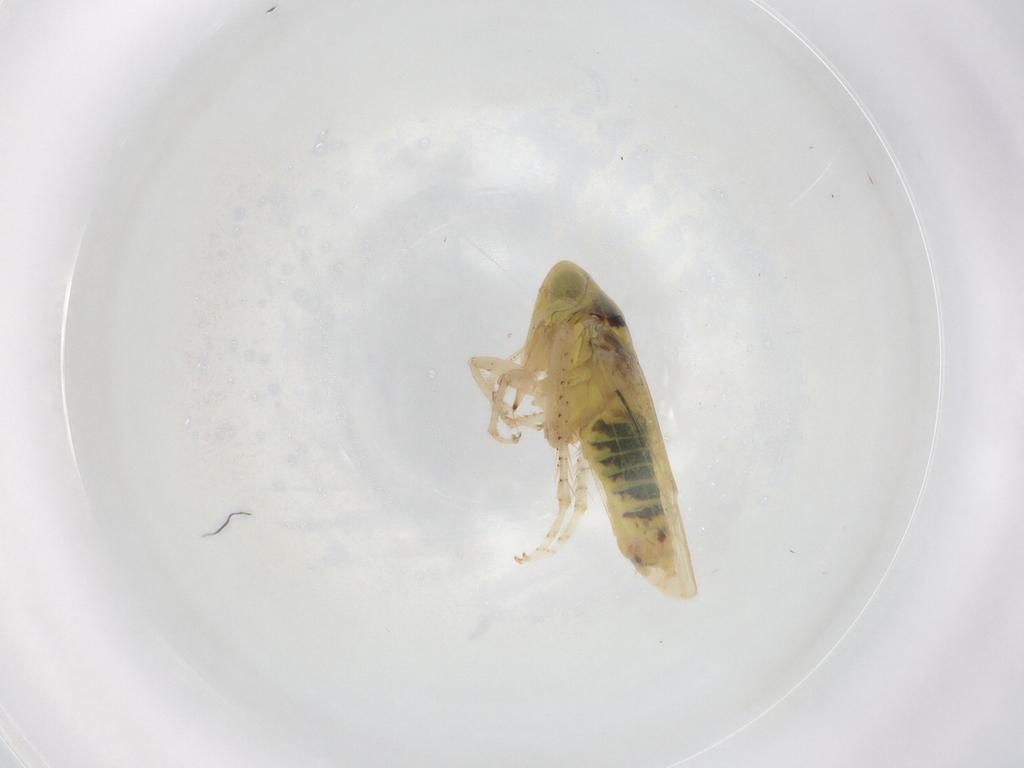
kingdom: Animalia
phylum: Arthropoda
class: Insecta
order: Hemiptera
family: Cicadellidae
